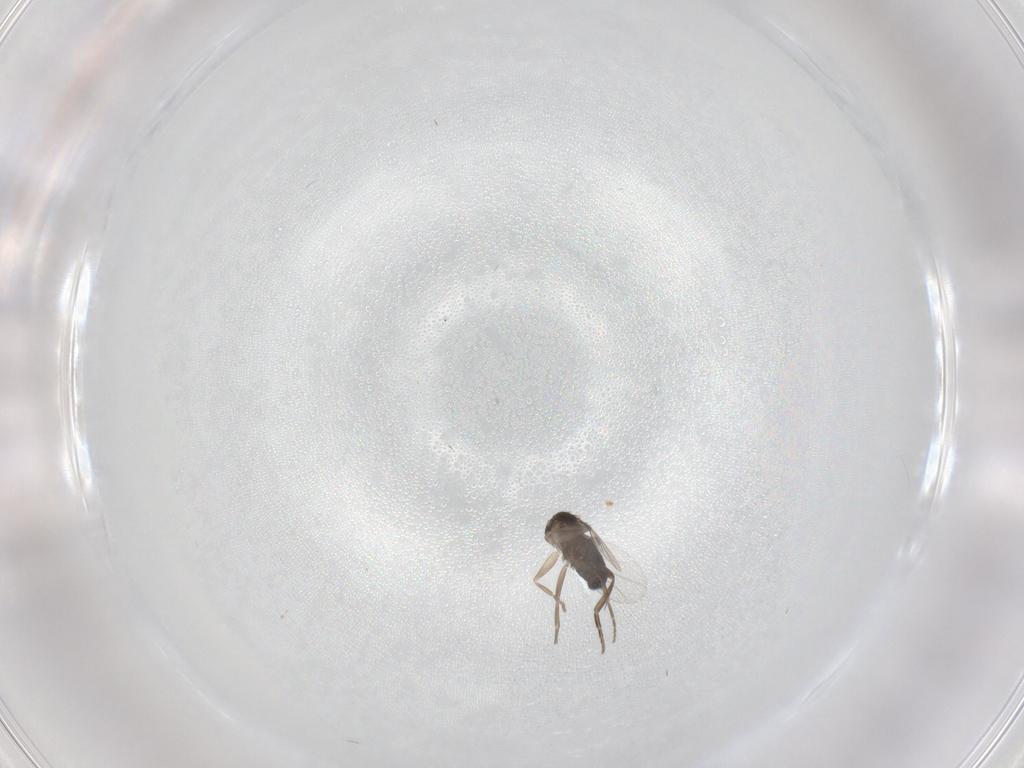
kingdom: Animalia
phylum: Arthropoda
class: Insecta
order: Diptera
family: Phoridae
